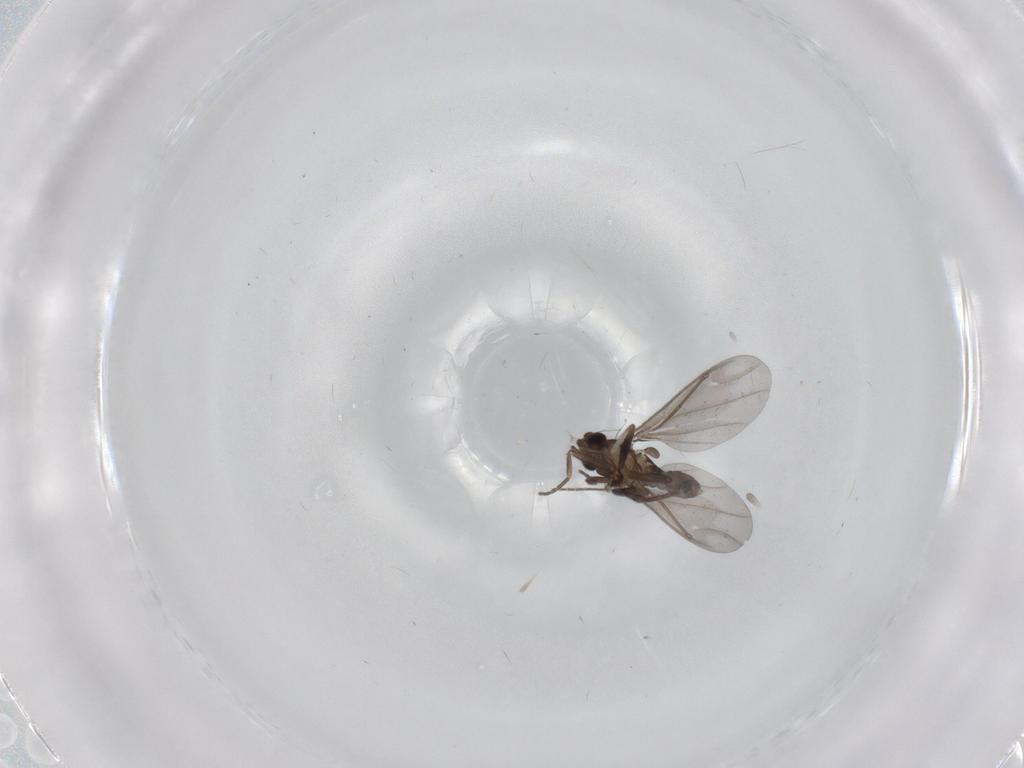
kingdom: Animalia
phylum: Arthropoda
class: Insecta
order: Diptera
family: Phoridae
